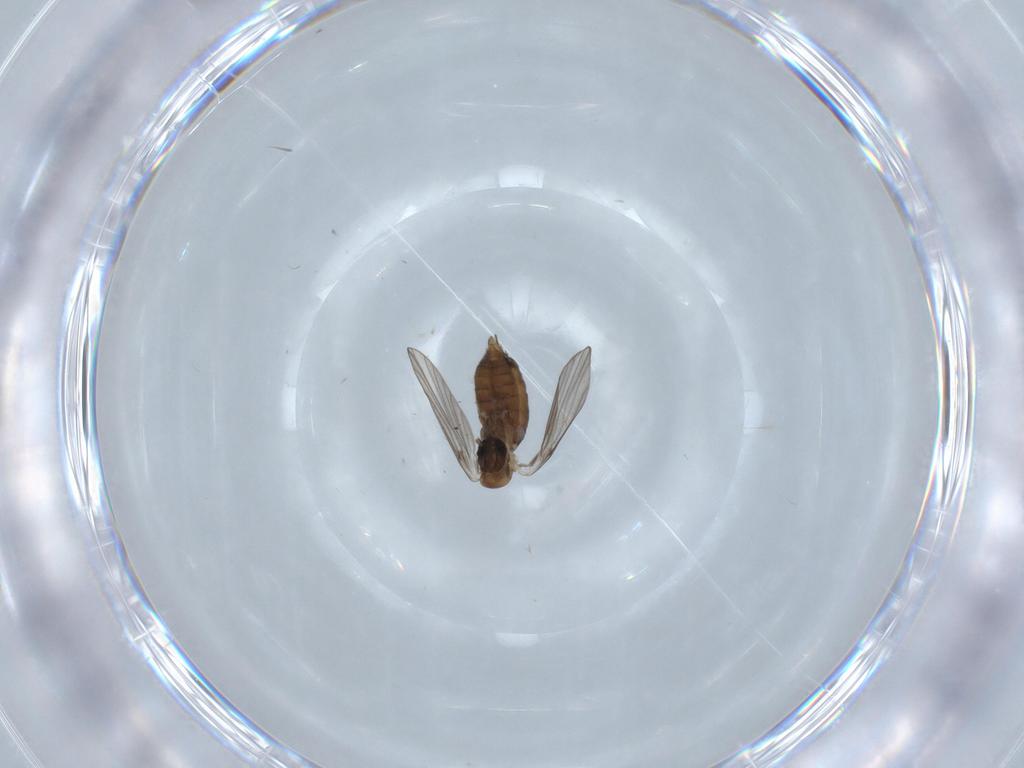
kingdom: Animalia
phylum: Arthropoda
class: Insecta
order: Diptera
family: Psychodidae
